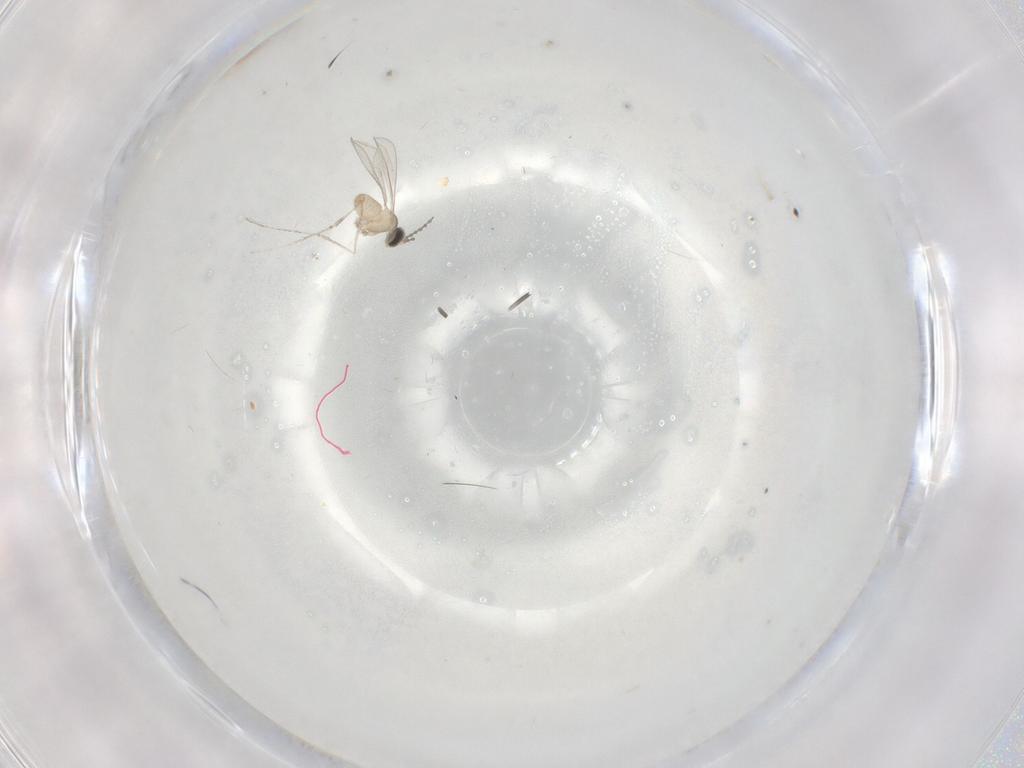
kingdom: Animalia
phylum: Arthropoda
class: Insecta
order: Diptera
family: Cecidomyiidae
